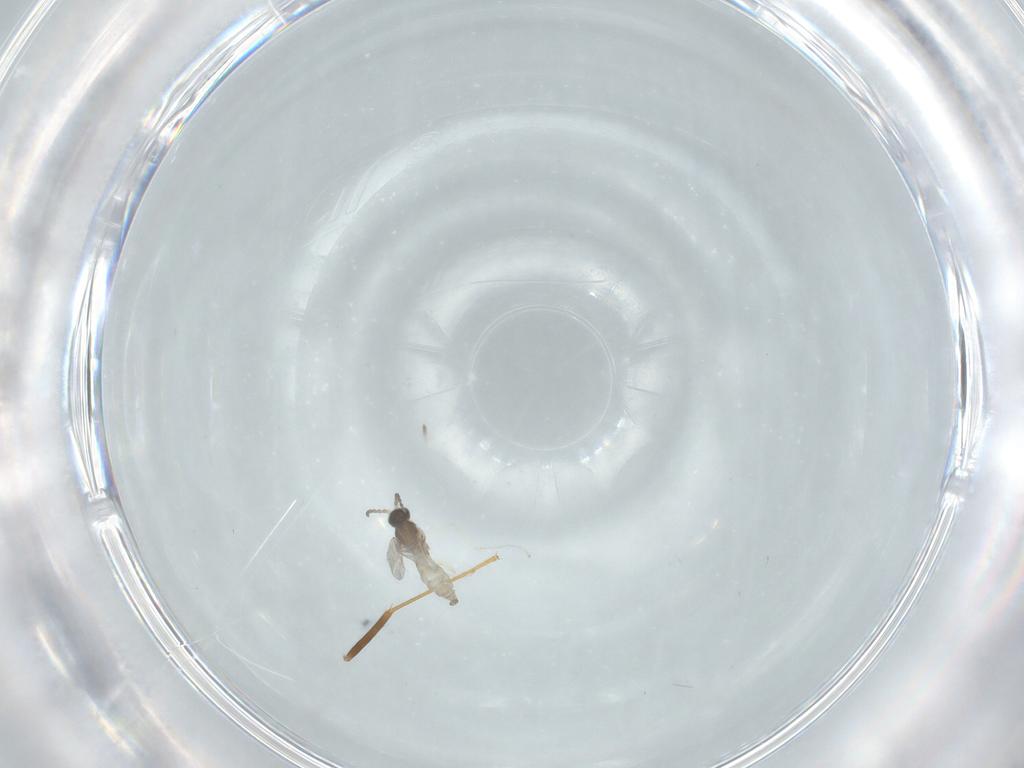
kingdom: Animalia
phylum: Arthropoda
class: Insecta
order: Diptera
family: Cecidomyiidae
